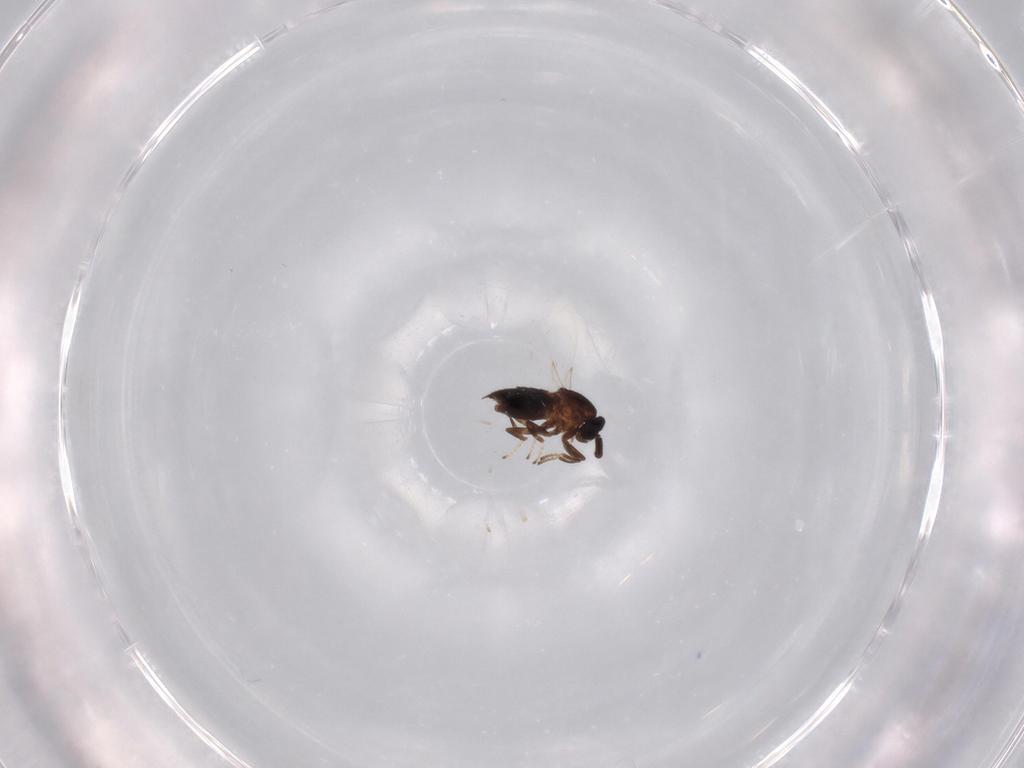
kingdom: Animalia
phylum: Arthropoda
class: Insecta
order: Diptera
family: Scatopsidae
